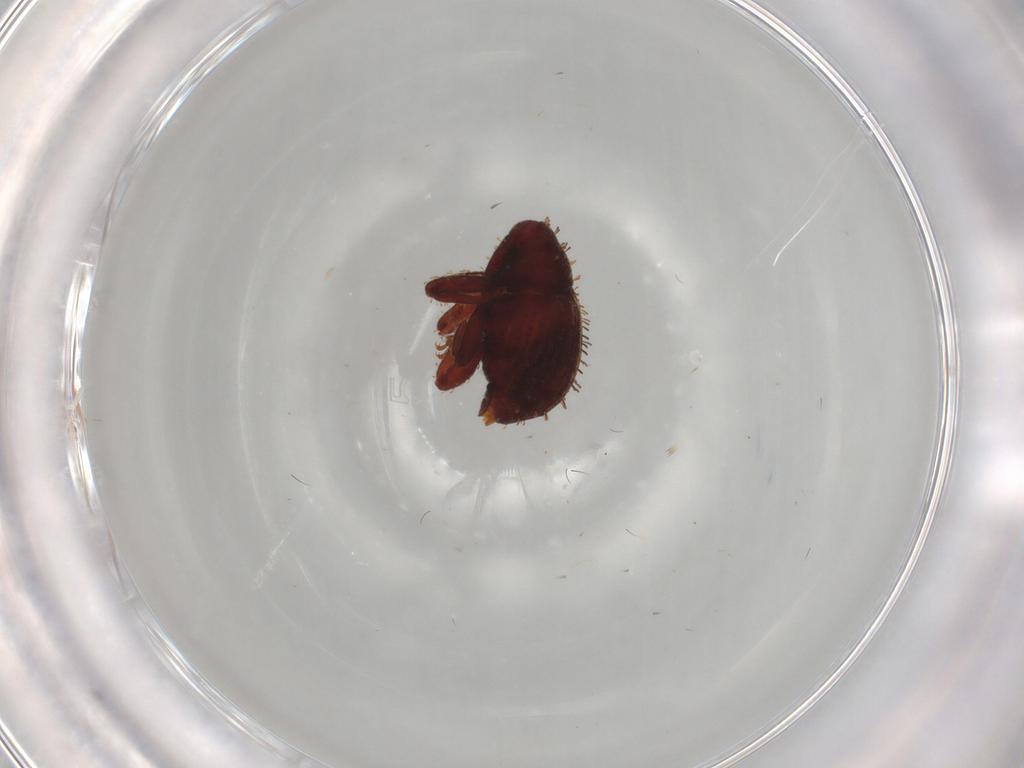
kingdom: Animalia
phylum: Arthropoda
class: Insecta
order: Coleoptera
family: Curculionidae
